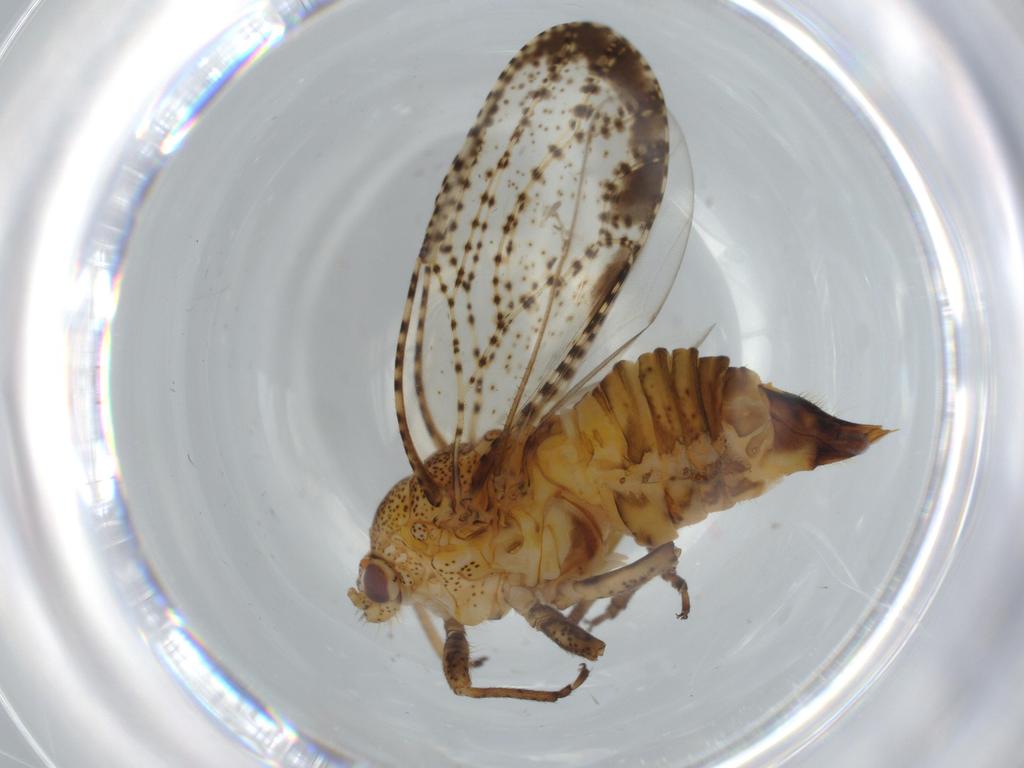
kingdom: Animalia
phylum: Arthropoda
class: Insecta
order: Hemiptera
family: Psyllidae
